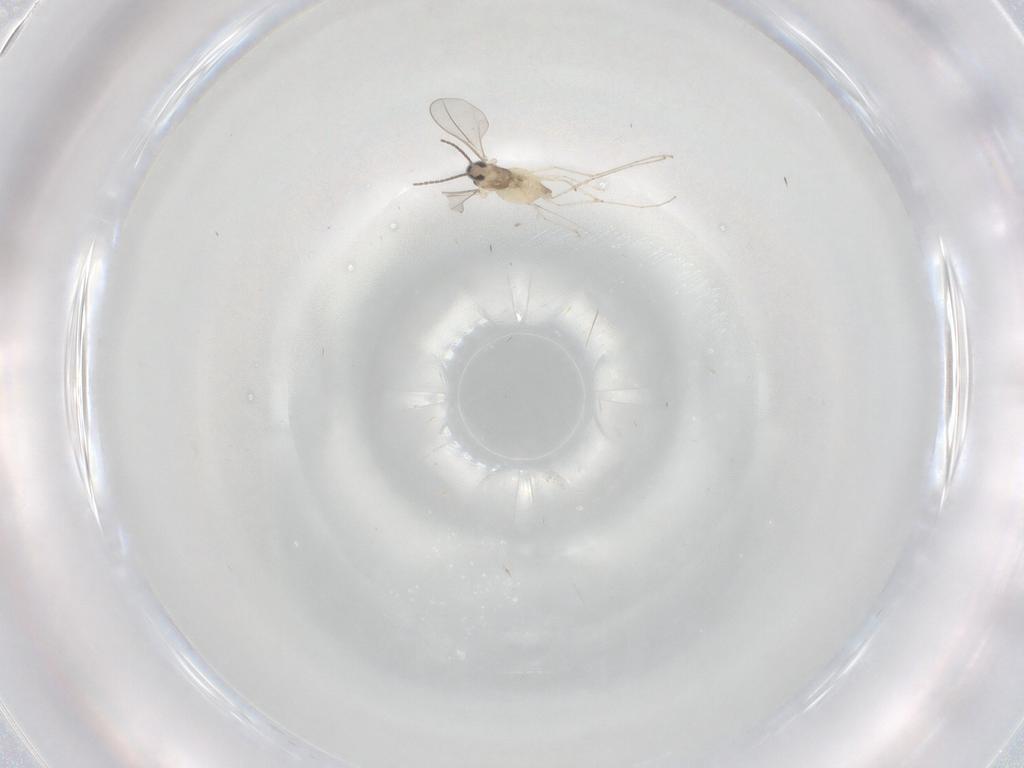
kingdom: Animalia
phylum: Arthropoda
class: Insecta
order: Diptera
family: Cecidomyiidae
